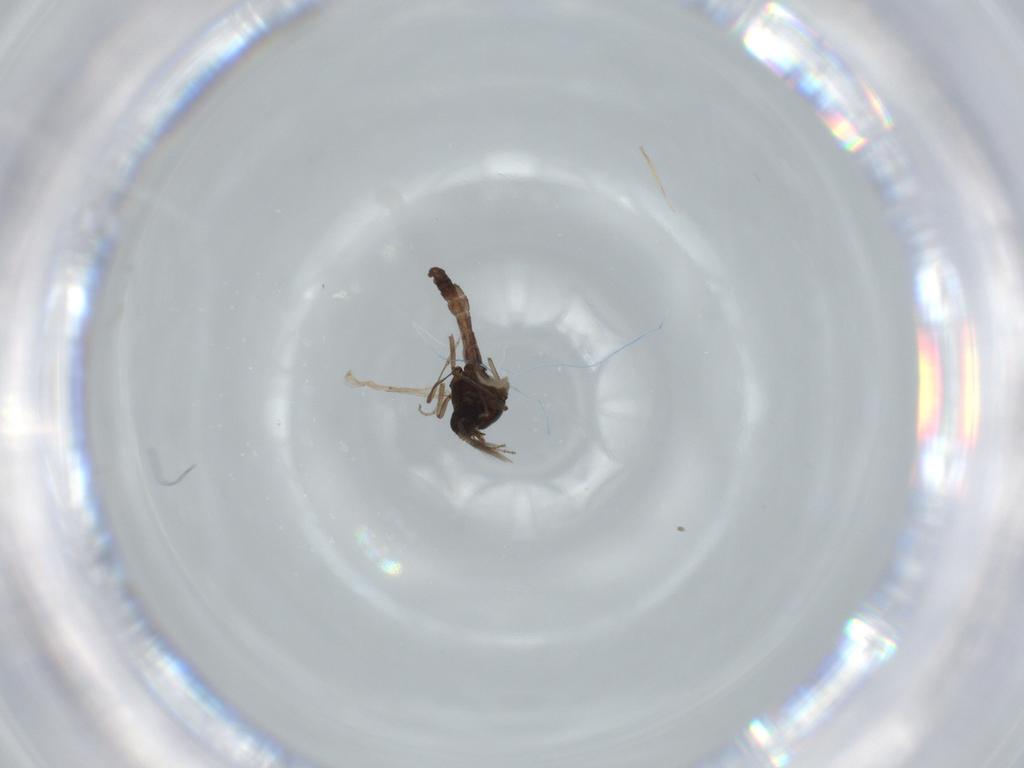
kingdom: Animalia
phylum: Arthropoda
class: Insecta
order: Diptera
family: Ceratopogonidae
